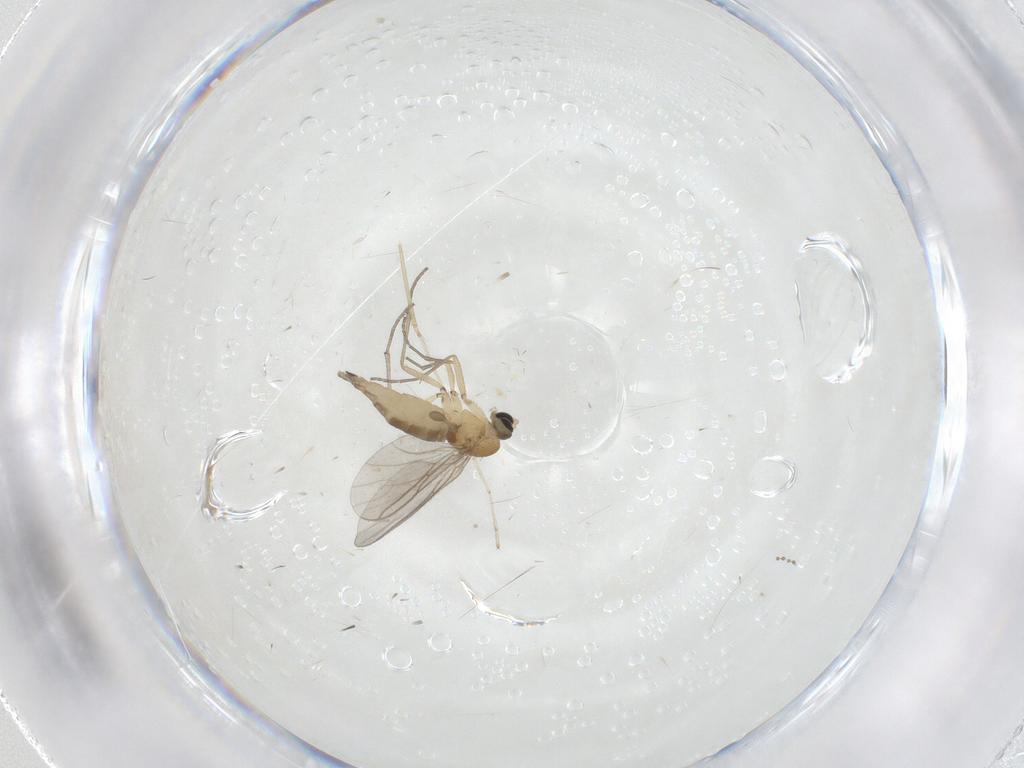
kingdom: Animalia
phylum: Arthropoda
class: Insecta
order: Diptera
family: Sciaridae
